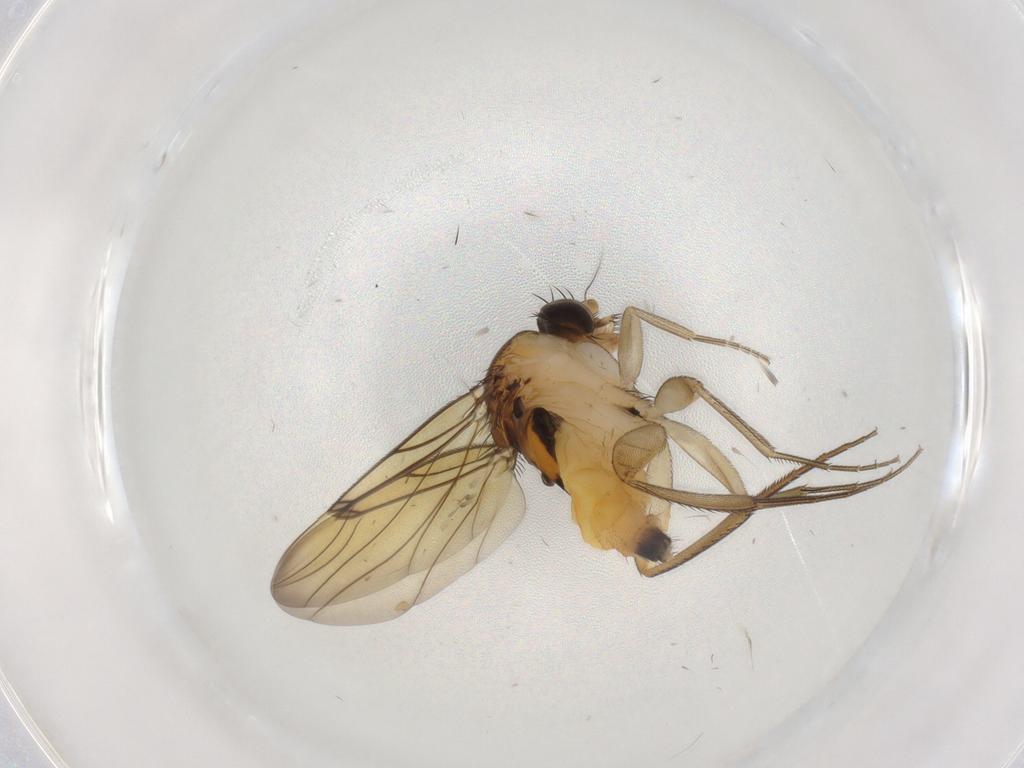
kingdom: Animalia
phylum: Arthropoda
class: Insecta
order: Diptera
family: Phoridae
